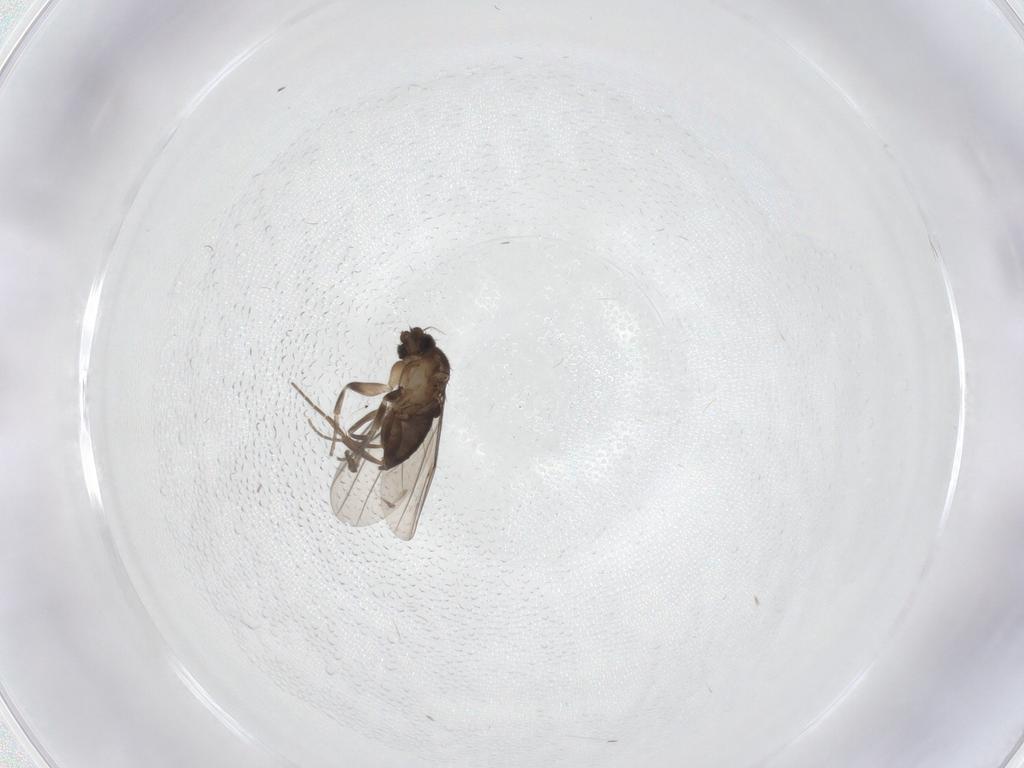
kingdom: Animalia
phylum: Arthropoda
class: Insecta
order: Diptera
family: Phoridae
